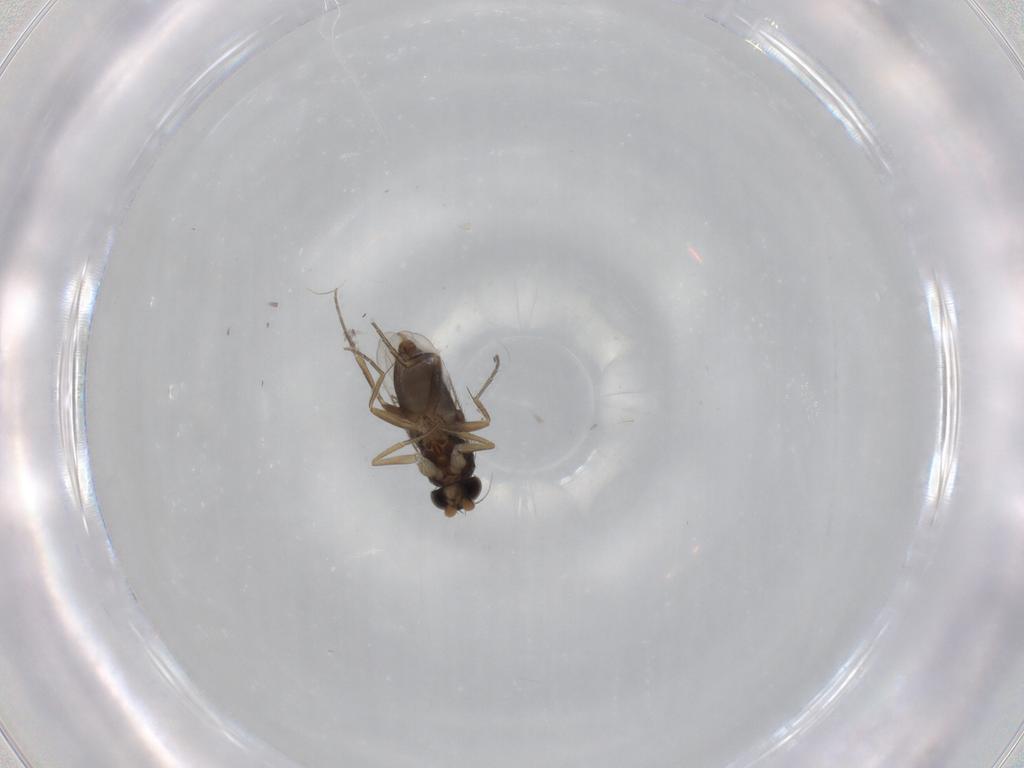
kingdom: Animalia
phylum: Arthropoda
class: Insecta
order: Diptera
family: Phoridae
